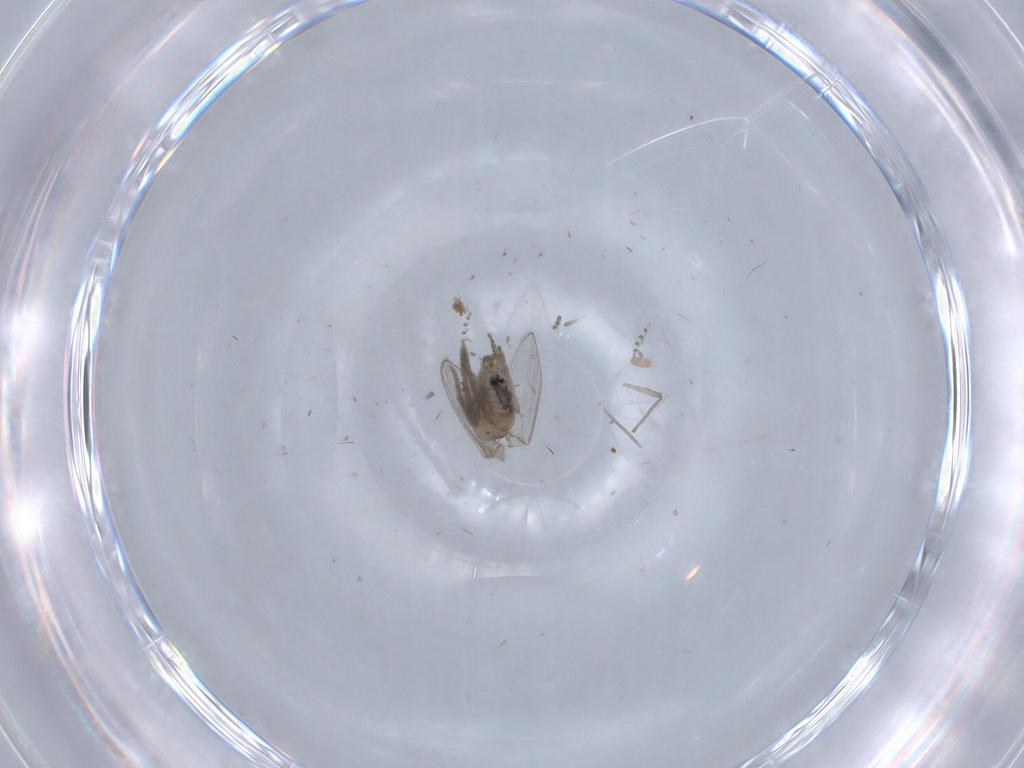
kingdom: Animalia
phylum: Arthropoda
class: Insecta
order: Diptera
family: Psychodidae
